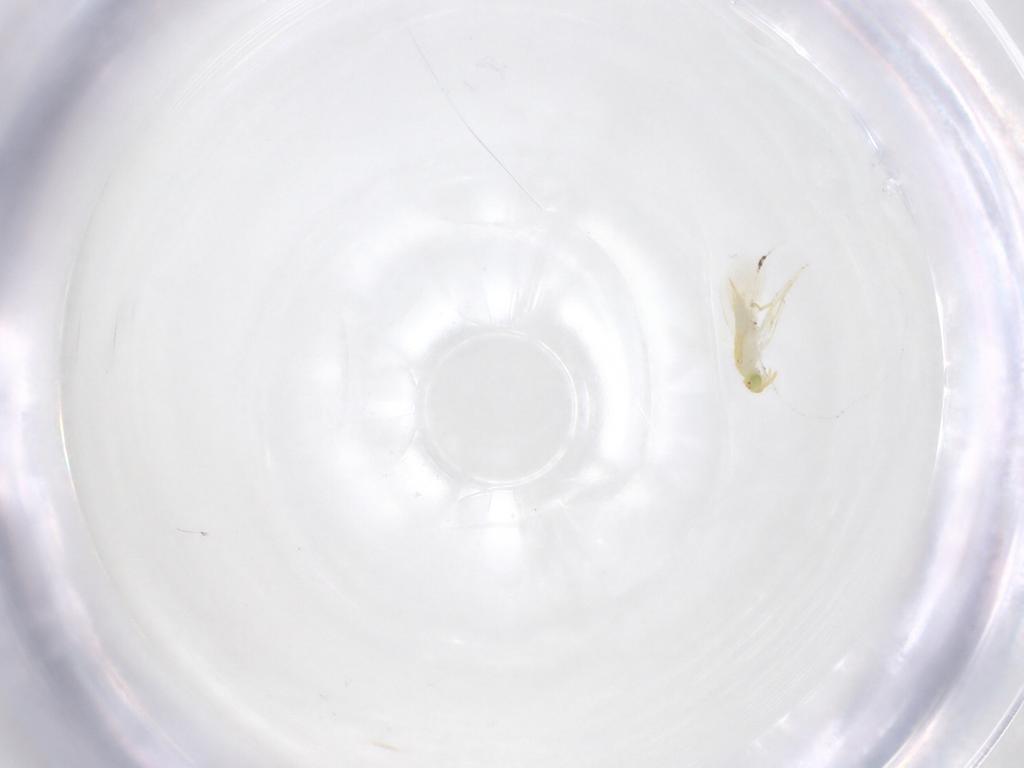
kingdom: Animalia
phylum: Arthropoda
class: Insecta
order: Hymenoptera
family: Aphelinidae
